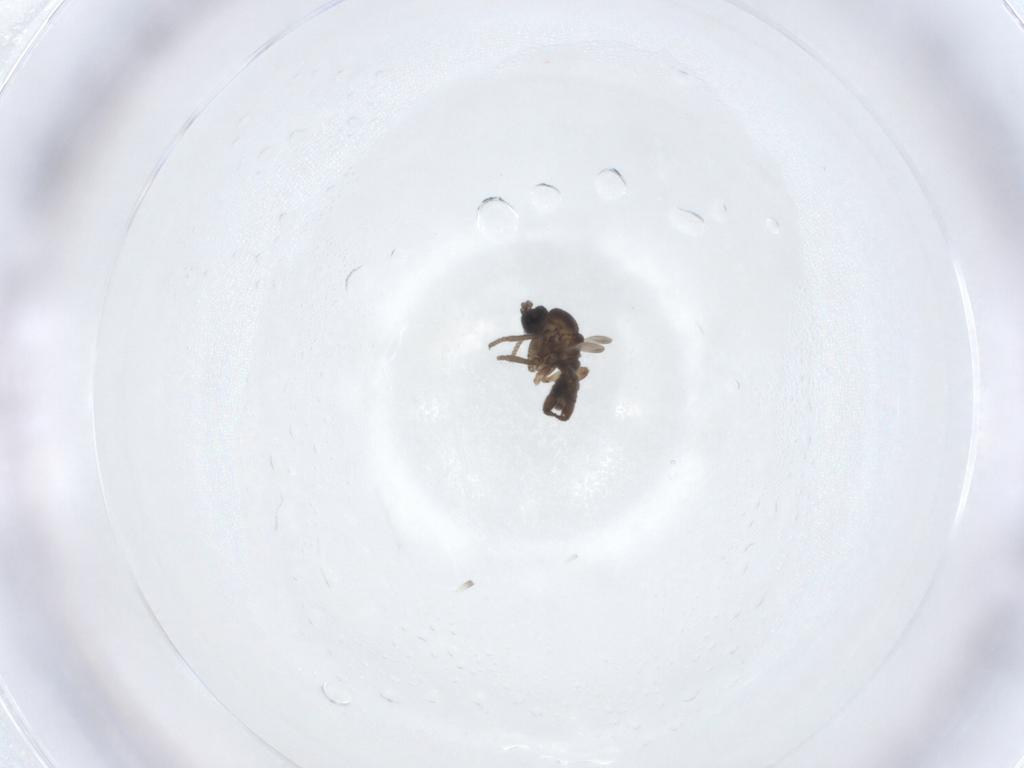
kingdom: Animalia
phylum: Arthropoda
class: Insecta
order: Diptera
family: Sciaridae
